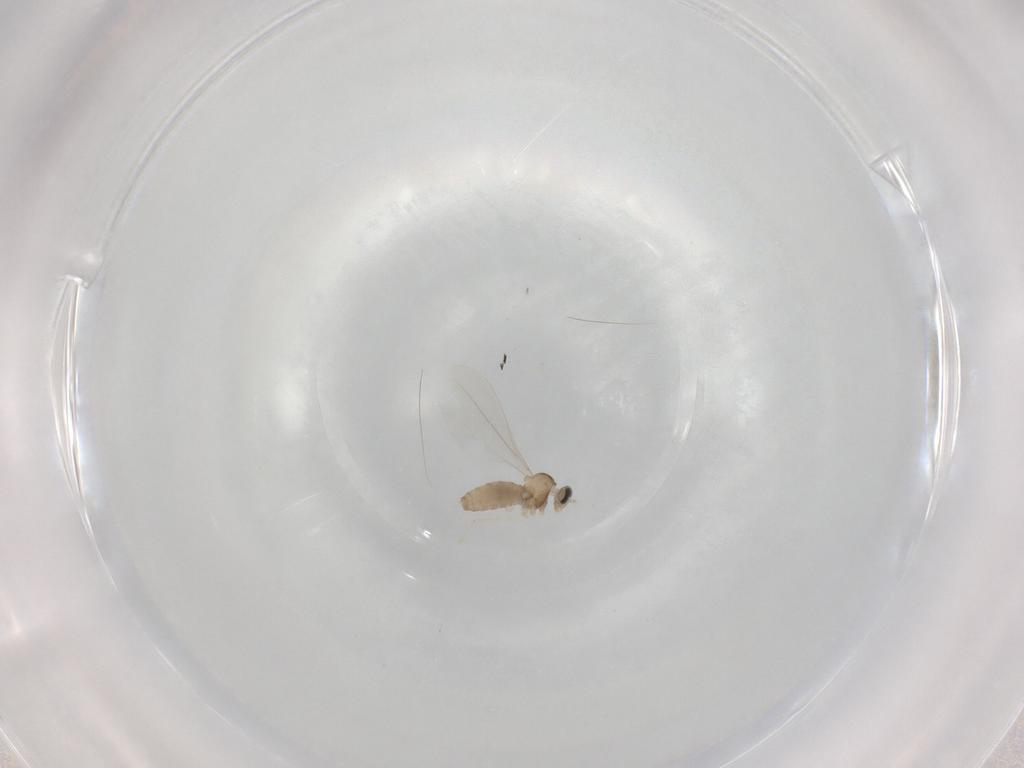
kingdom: Animalia
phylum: Arthropoda
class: Insecta
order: Diptera
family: Cecidomyiidae
